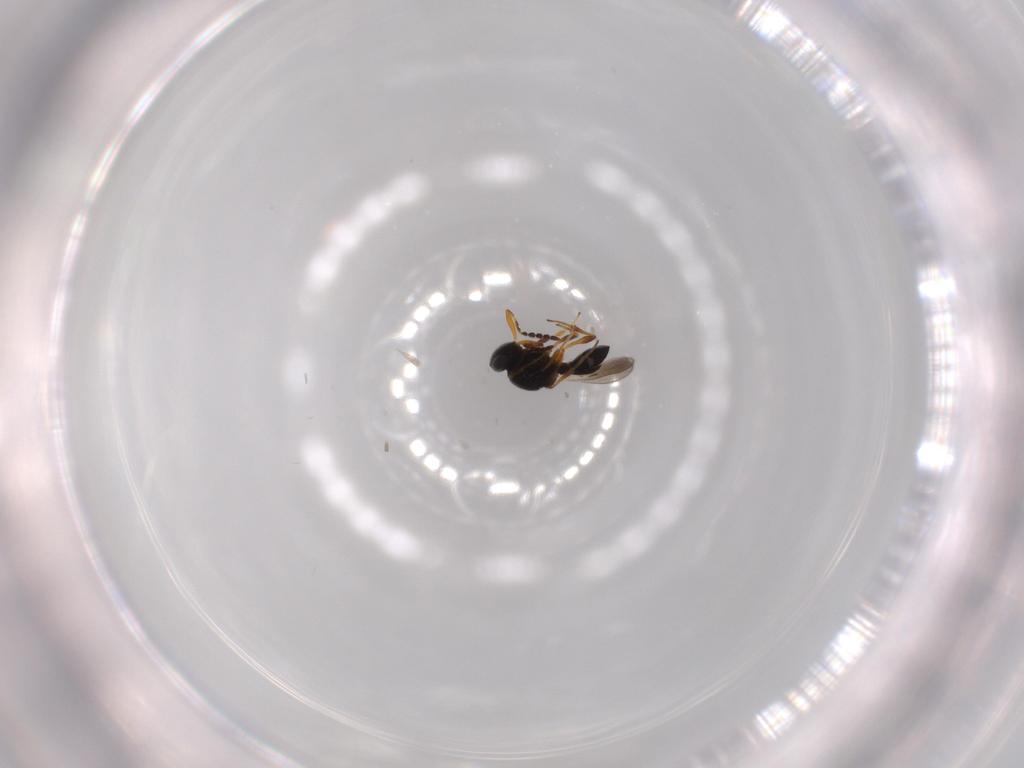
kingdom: Animalia
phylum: Arthropoda
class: Insecta
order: Hymenoptera
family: Platygastridae
